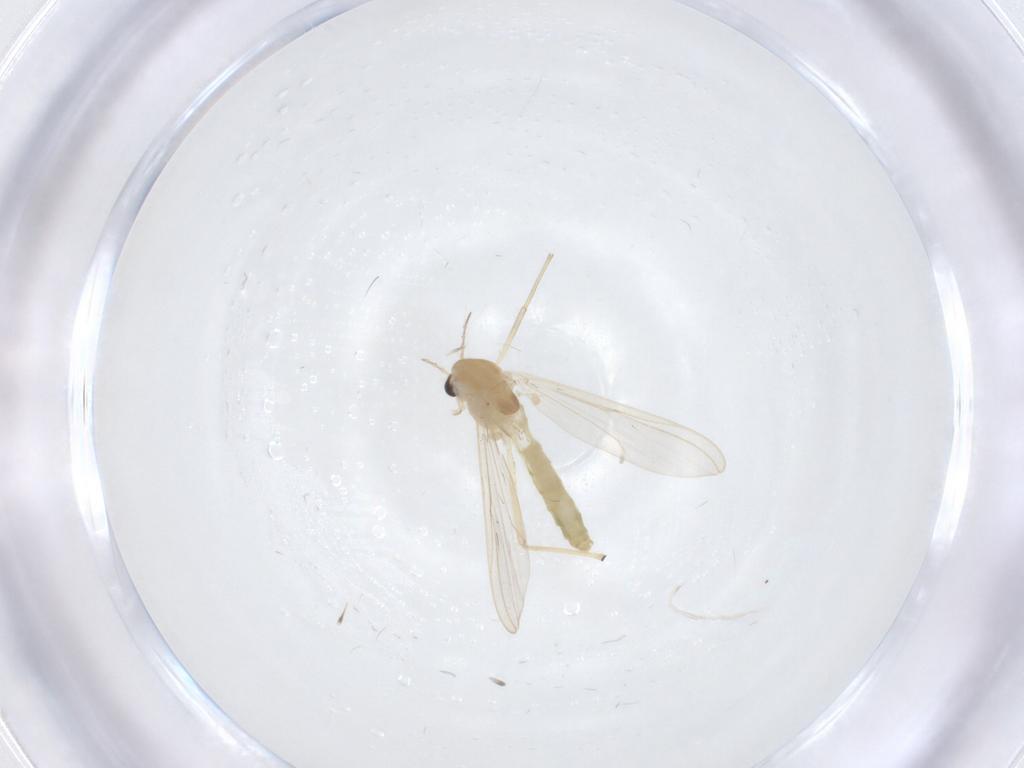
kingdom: Animalia
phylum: Arthropoda
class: Insecta
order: Diptera
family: Chironomidae
